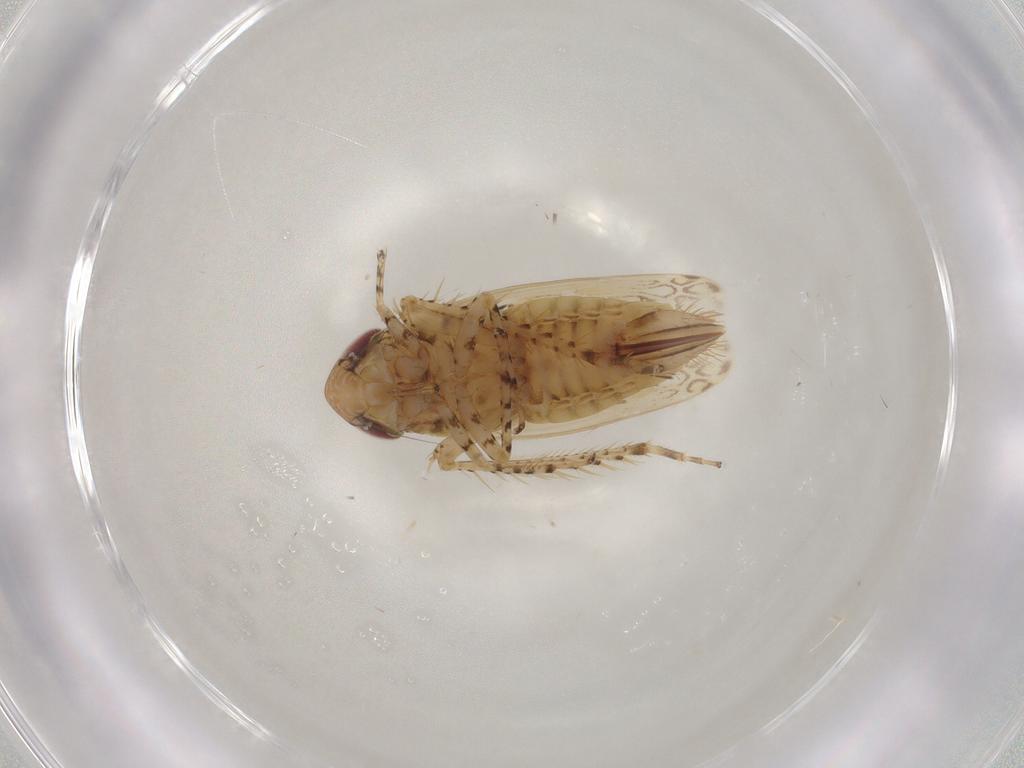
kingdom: Animalia
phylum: Arthropoda
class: Insecta
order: Hemiptera
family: Cicadellidae
